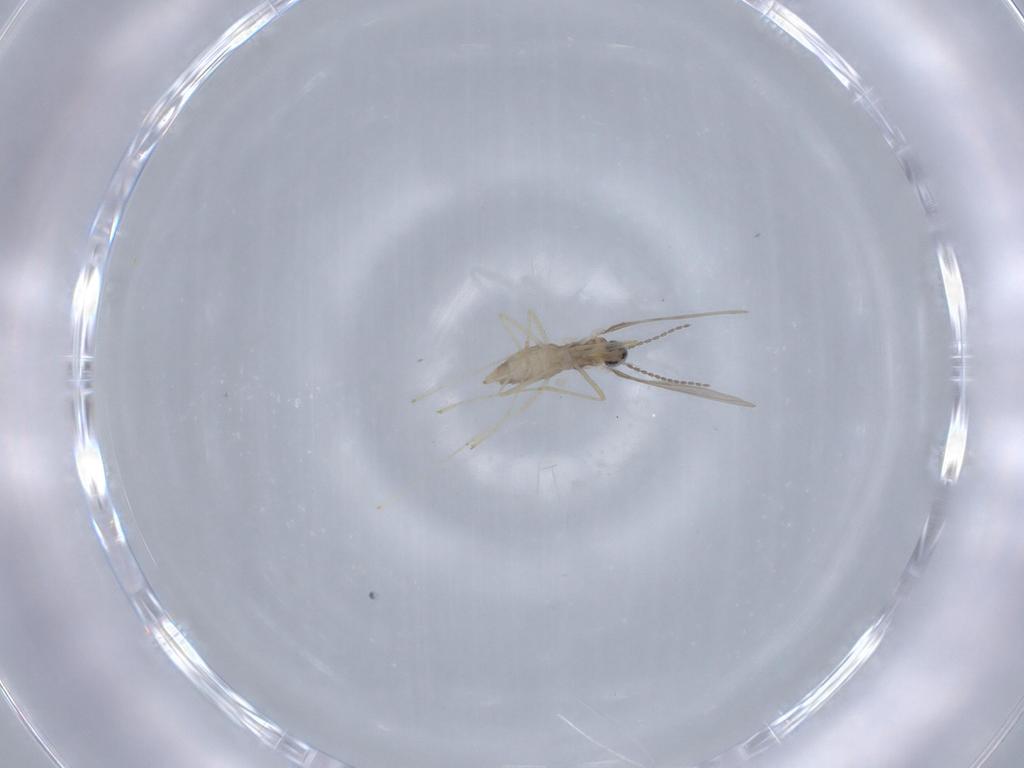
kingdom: Animalia
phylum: Arthropoda
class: Insecta
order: Diptera
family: Cecidomyiidae
